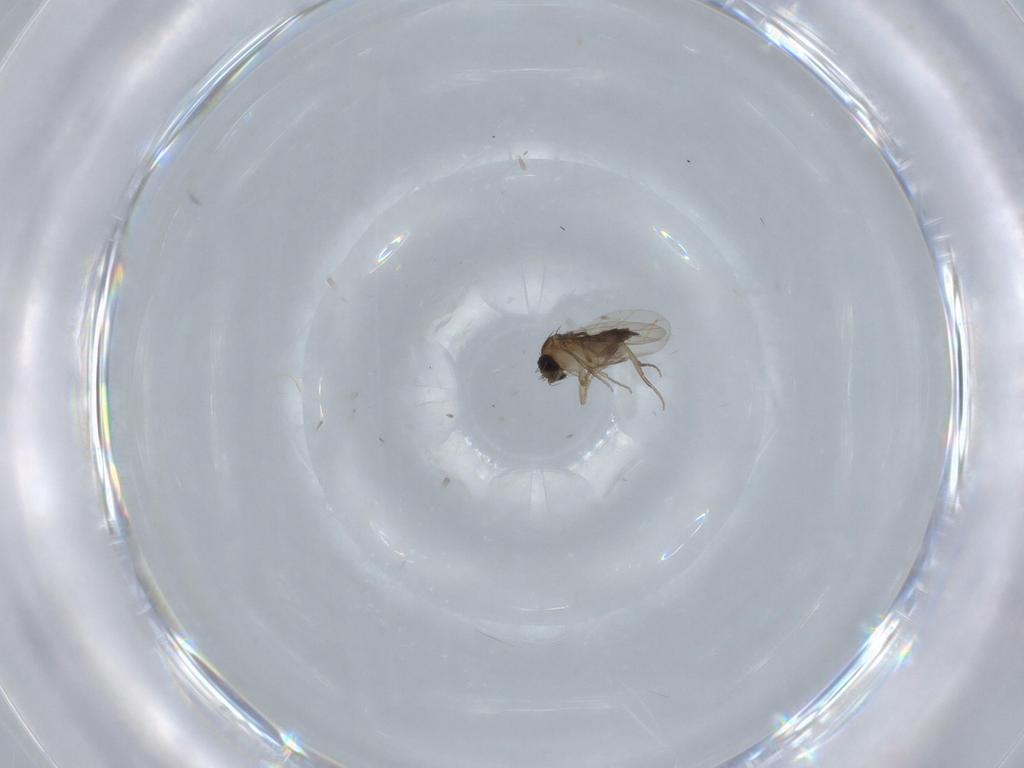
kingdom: Animalia
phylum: Arthropoda
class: Insecta
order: Diptera
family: Phoridae
